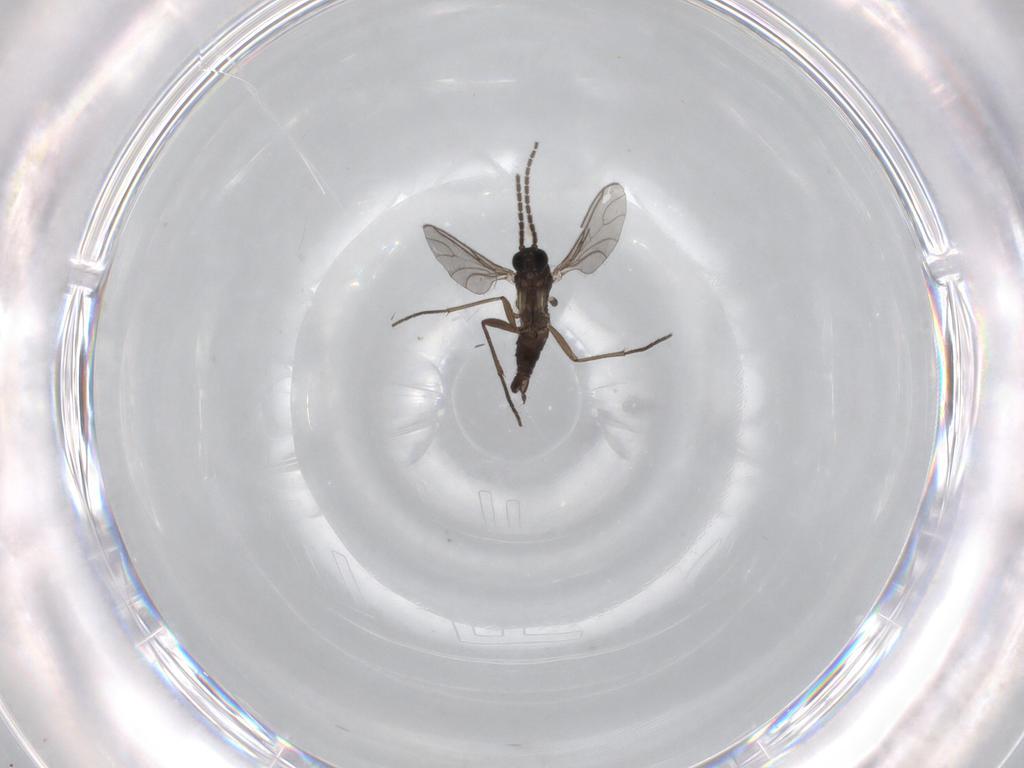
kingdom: Animalia
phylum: Arthropoda
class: Insecta
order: Diptera
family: Sciaridae
